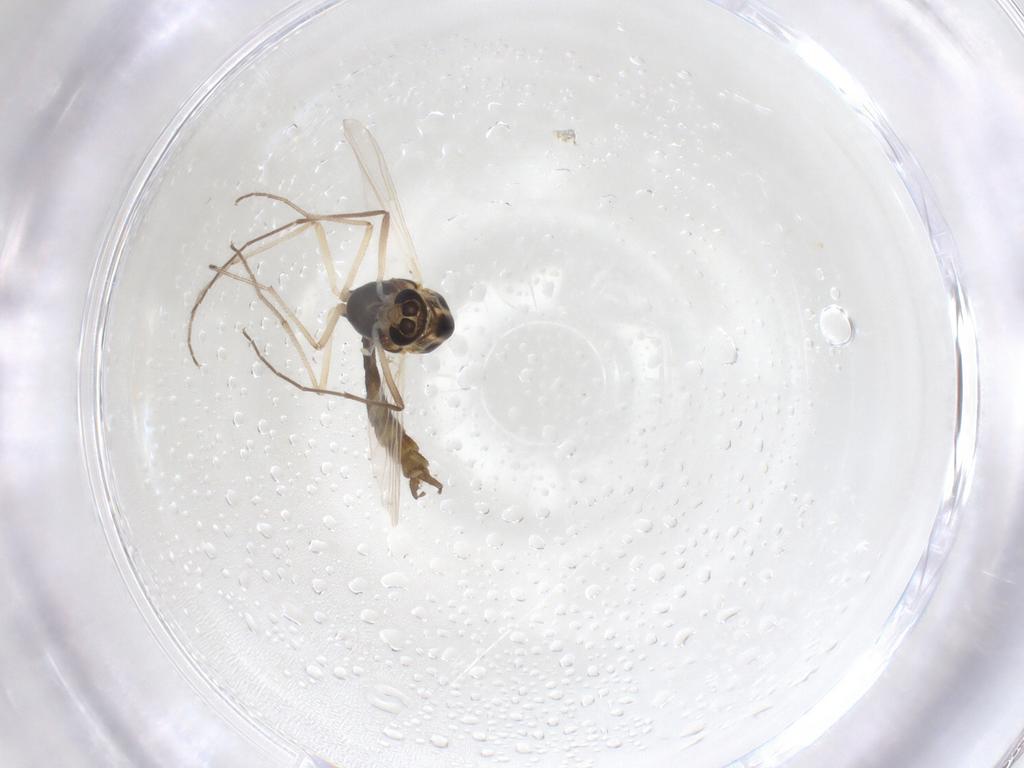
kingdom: Animalia
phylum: Arthropoda
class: Insecta
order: Diptera
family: Chironomidae
